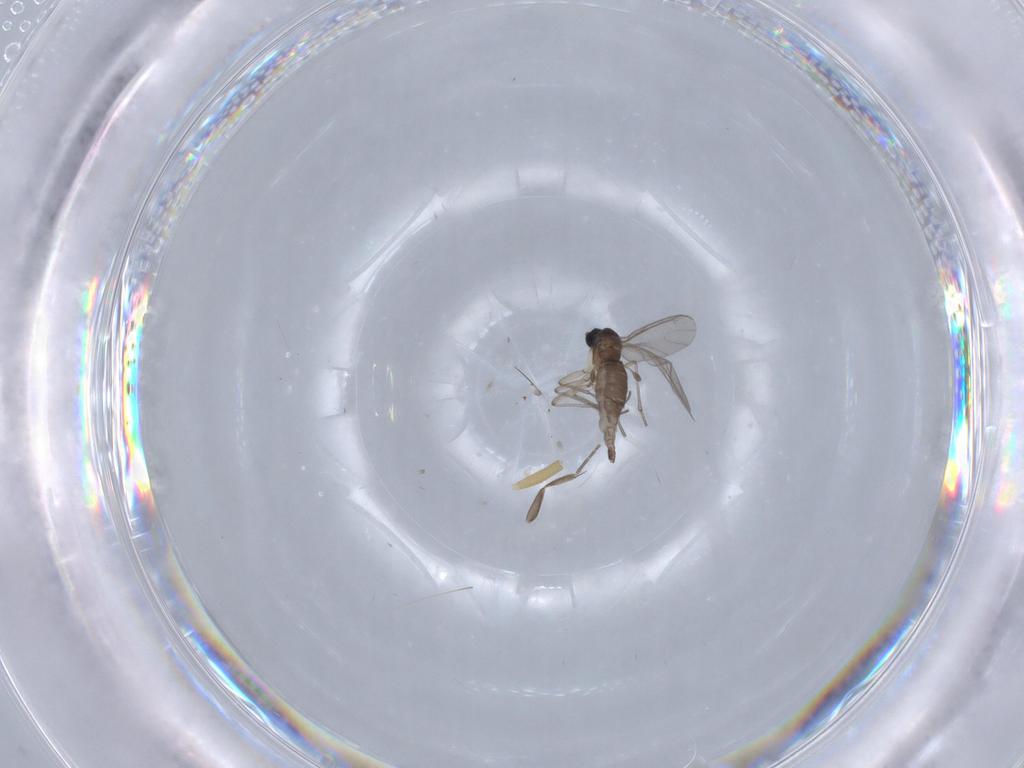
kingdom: Animalia
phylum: Arthropoda
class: Insecta
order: Diptera
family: Phoridae
